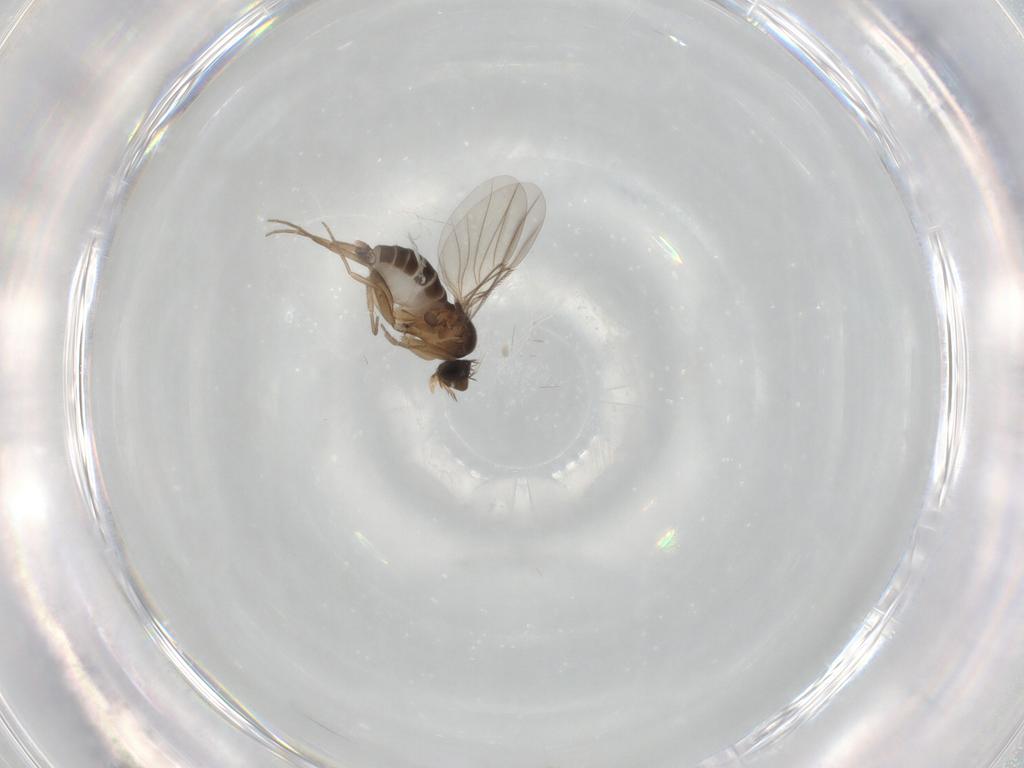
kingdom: Animalia
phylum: Arthropoda
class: Insecta
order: Diptera
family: Phoridae
